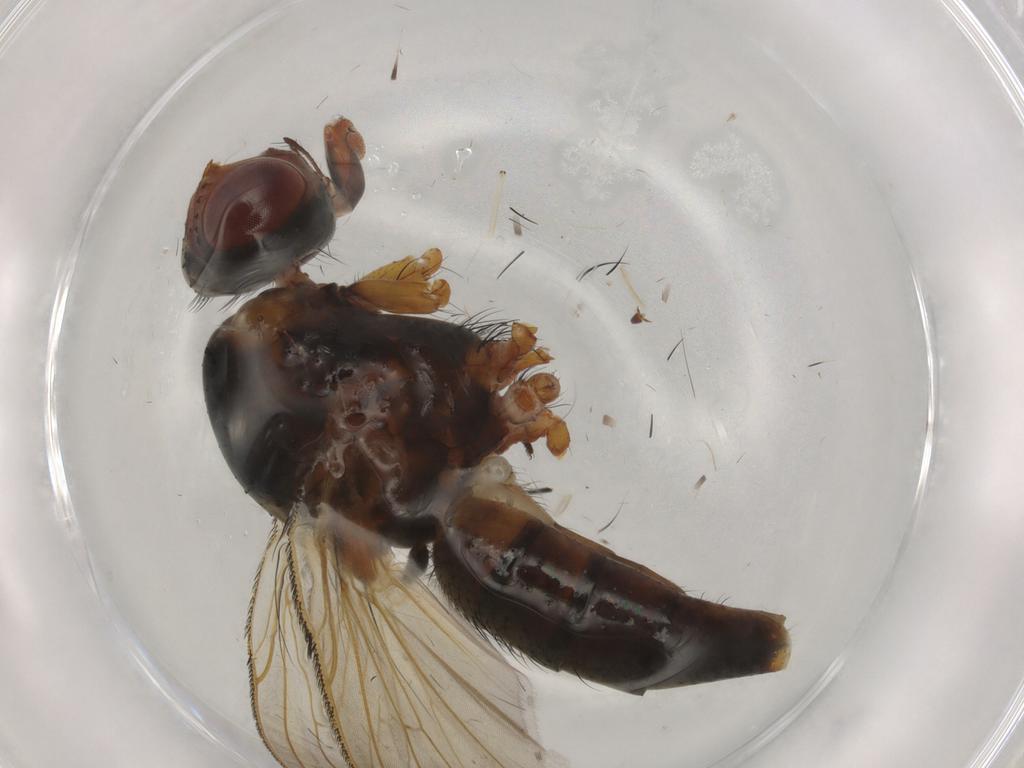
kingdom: Animalia
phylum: Arthropoda
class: Insecta
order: Diptera
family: Anthomyiidae
